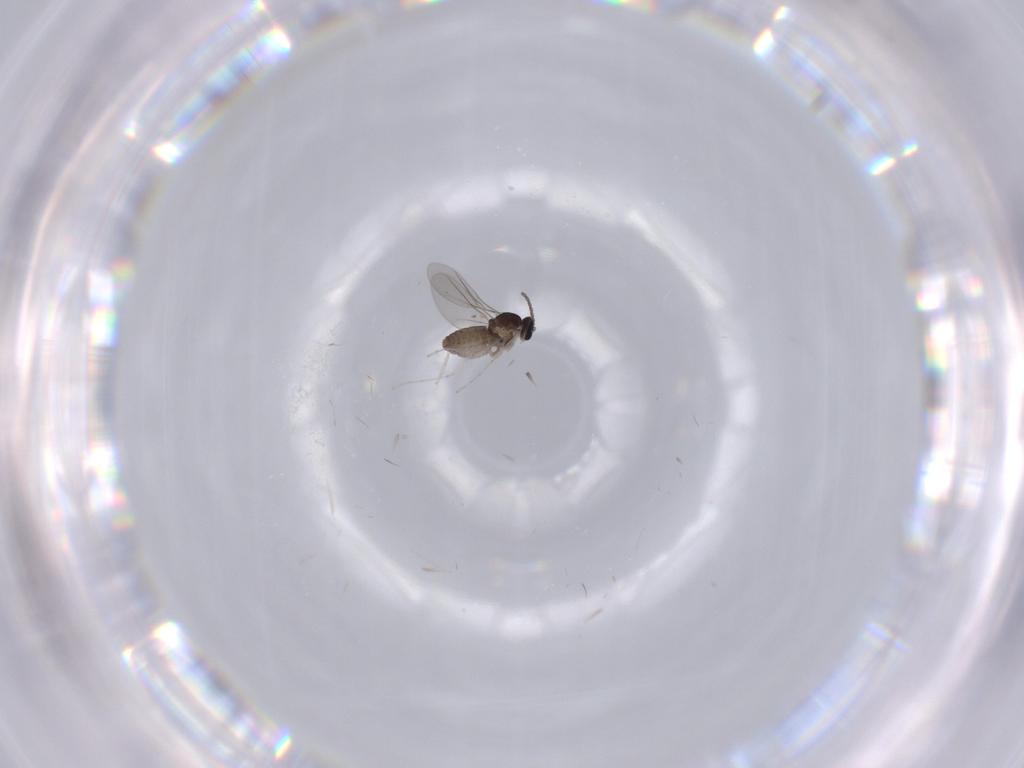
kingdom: Animalia
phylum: Arthropoda
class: Insecta
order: Diptera
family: Cecidomyiidae
